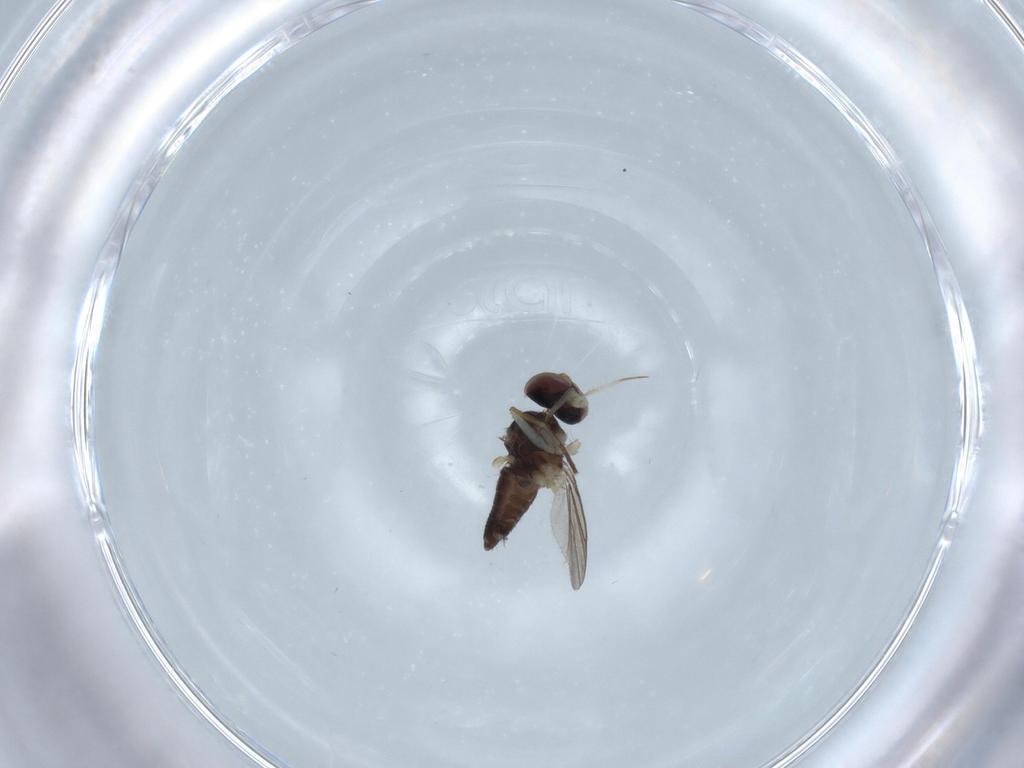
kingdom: Animalia
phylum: Arthropoda
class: Insecta
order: Diptera
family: Dolichopodidae
